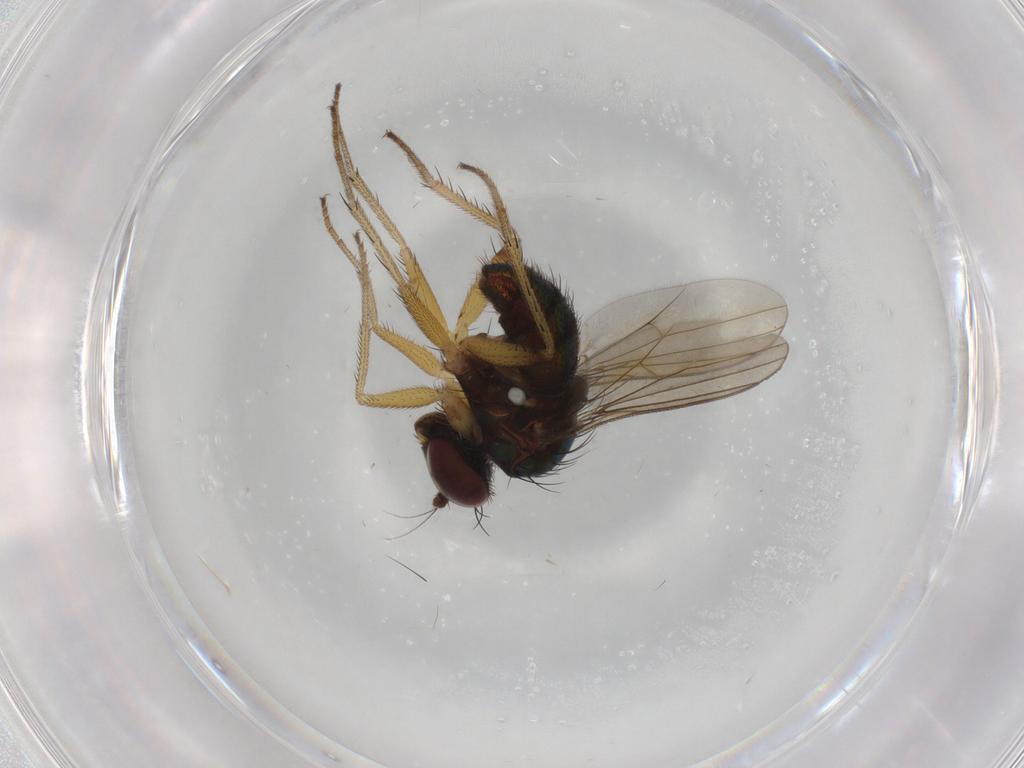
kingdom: Animalia
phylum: Arthropoda
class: Insecta
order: Diptera
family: Dolichopodidae
